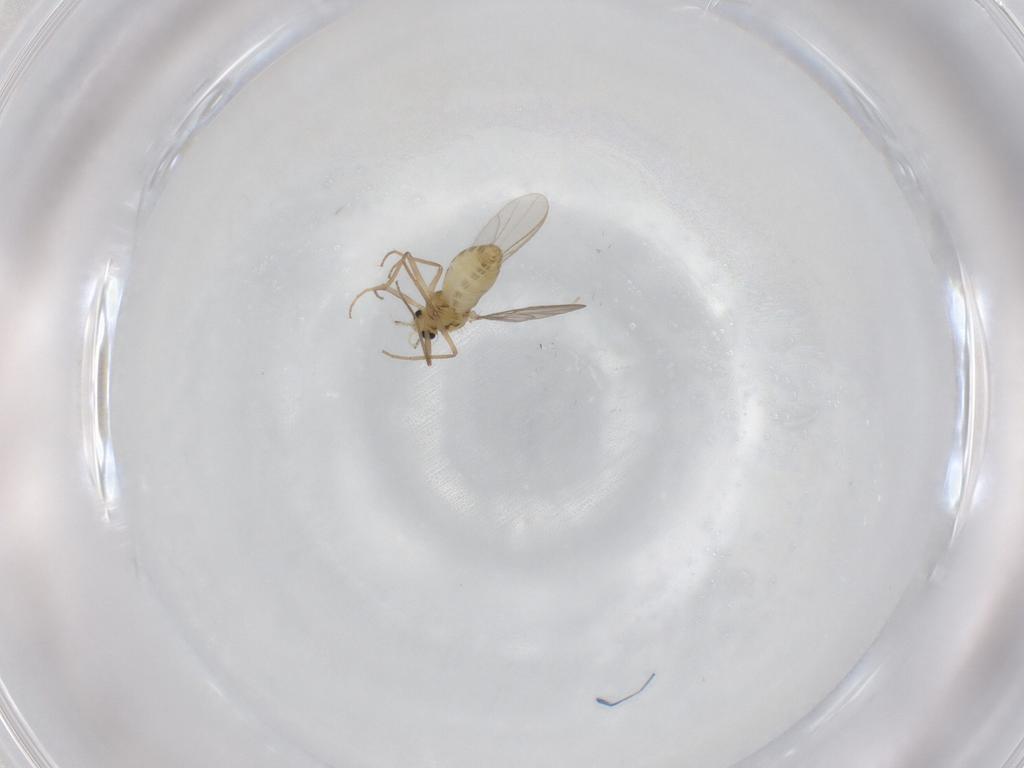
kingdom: Animalia
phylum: Arthropoda
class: Insecta
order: Diptera
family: Chironomidae
